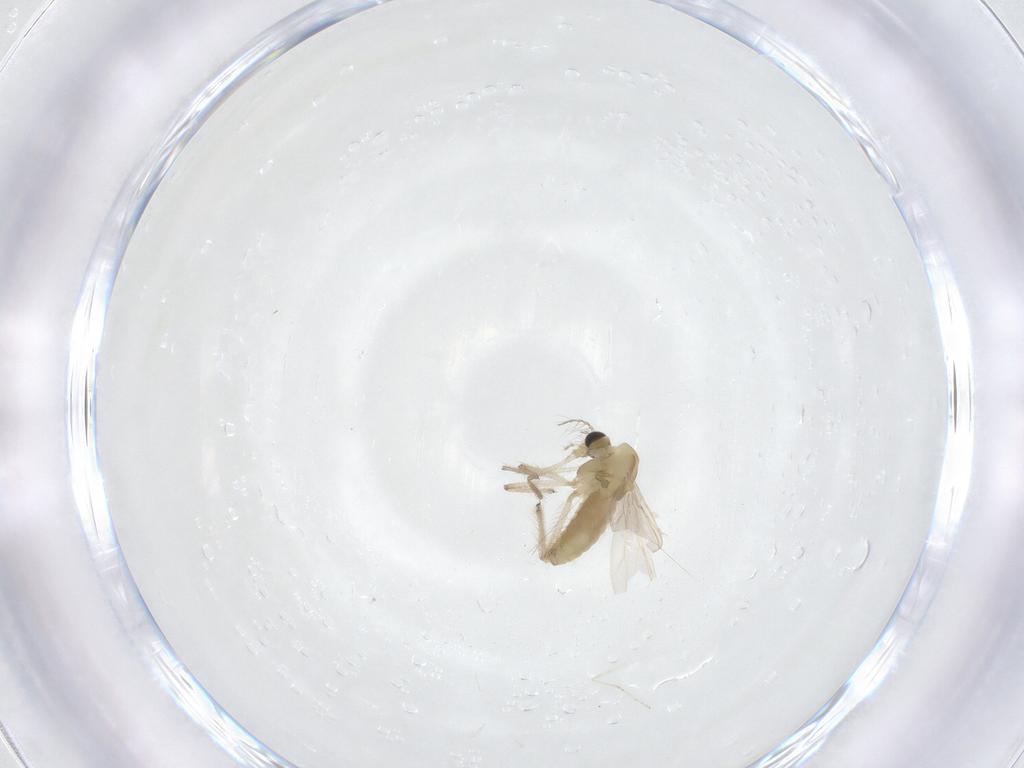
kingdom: Animalia
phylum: Arthropoda
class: Insecta
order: Diptera
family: Chironomidae
